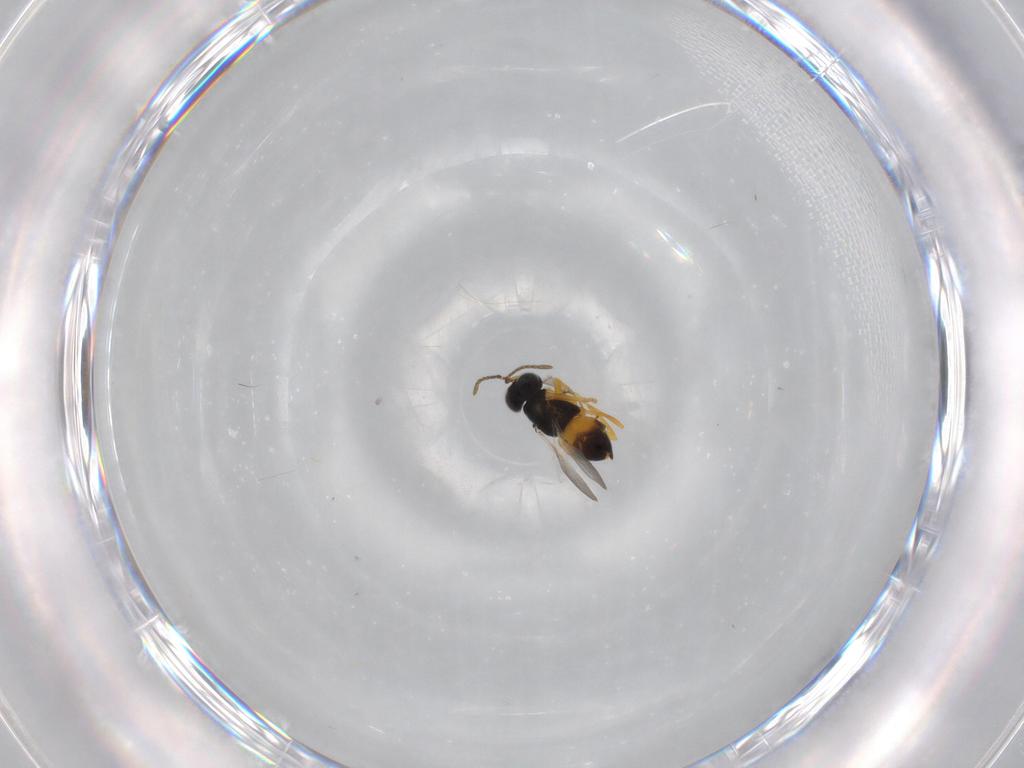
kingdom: Animalia
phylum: Arthropoda
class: Insecta
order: Hymenoptera
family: Encyrtidae
